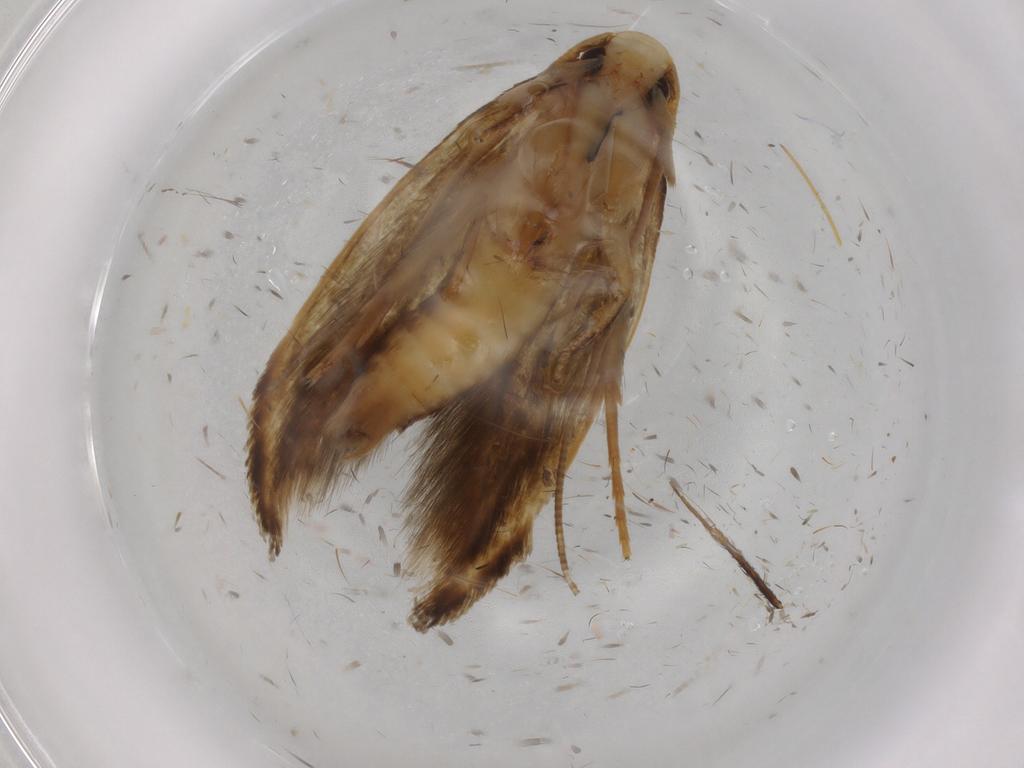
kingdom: Animalia
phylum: Arthropoda
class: Insecta
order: Lepidoptera
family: Tineidae
